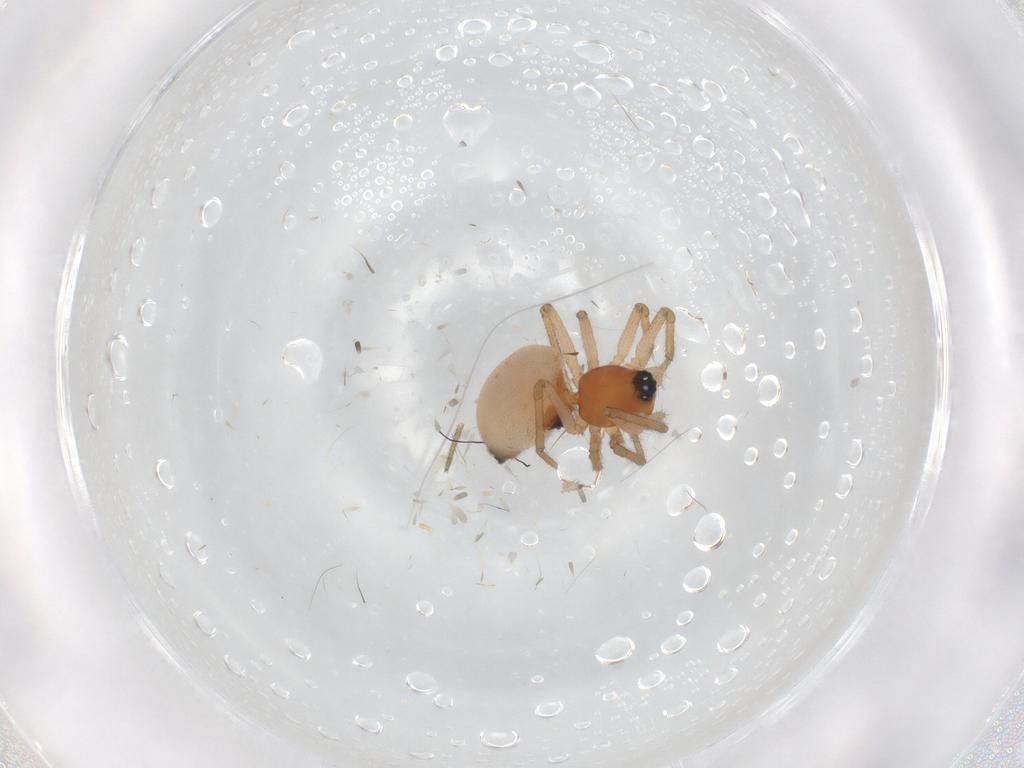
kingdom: Animalia
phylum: Arthropoda
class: Arachnida
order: Araneae
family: Linyphiidae
